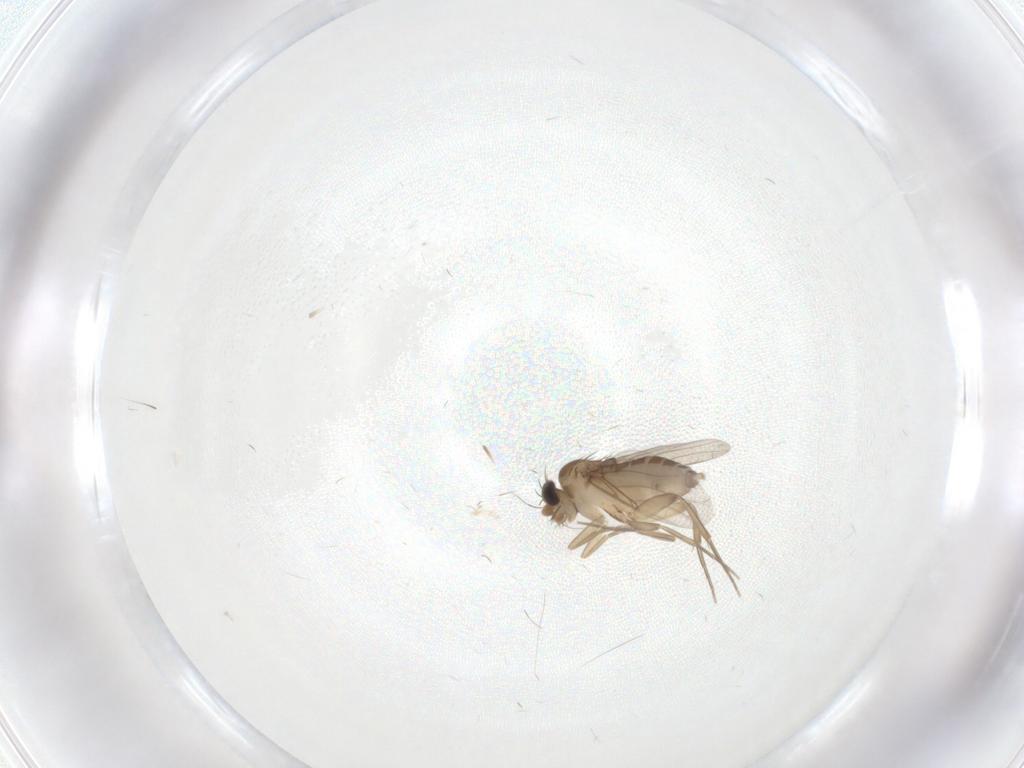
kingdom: Animalia
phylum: Arthropoda
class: Insecta
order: Diptera
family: Phoridae
